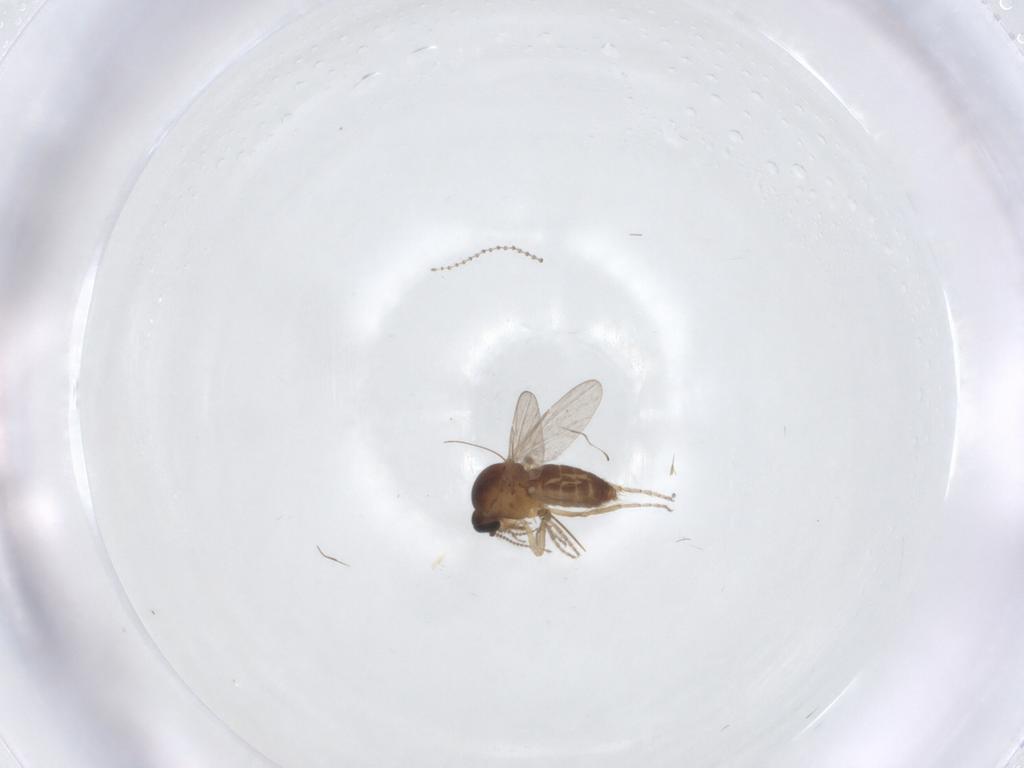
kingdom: Animalia
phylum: Arthropoda
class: Insecta
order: Diptera
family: Ceratopogonidae
